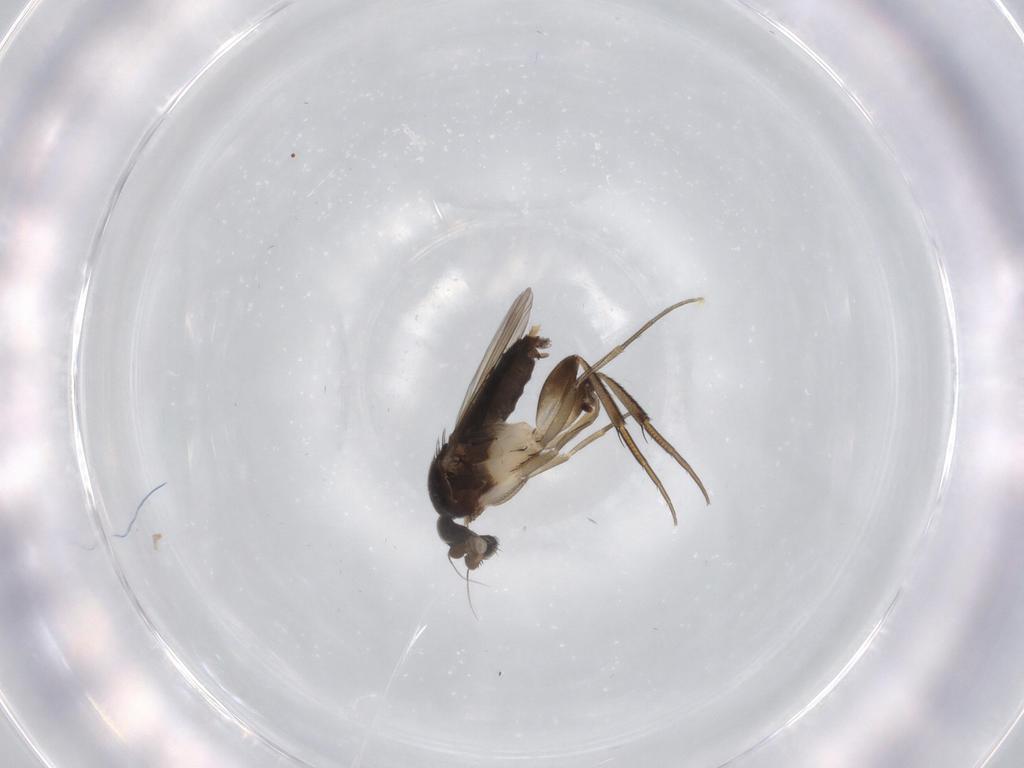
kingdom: Animalia
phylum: Arthropoda
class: Insecta
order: Diptera
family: Phoridae
